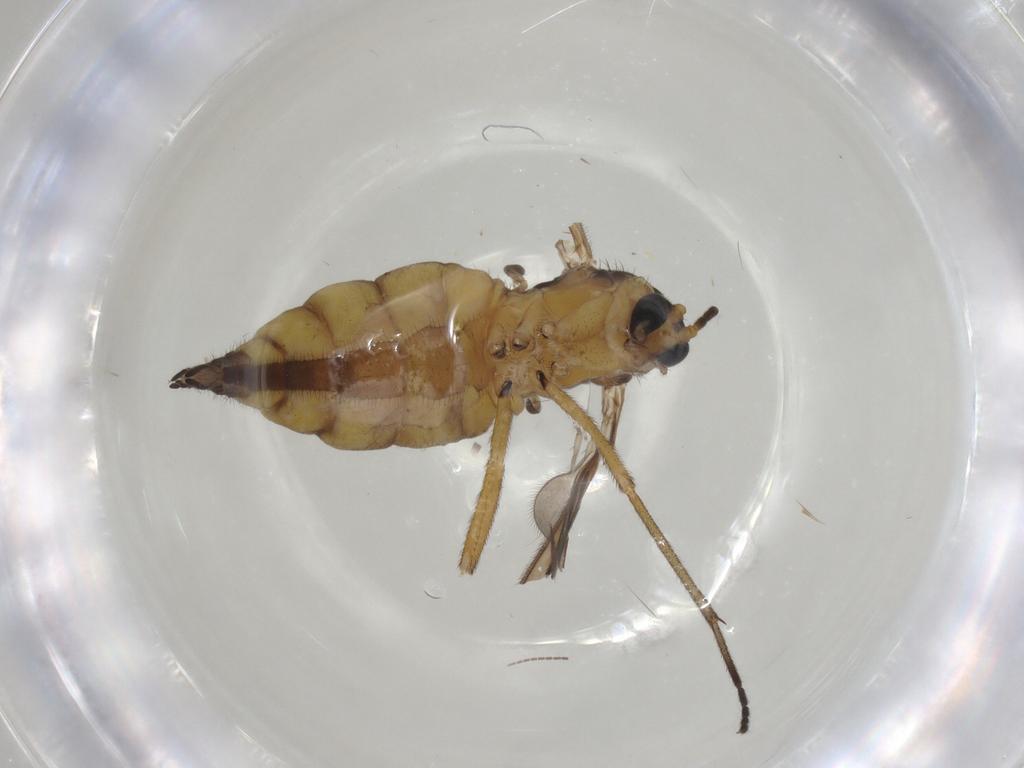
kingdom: Animalia
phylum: Arthropoda
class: Insecta
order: Diptera
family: Sciaridae
